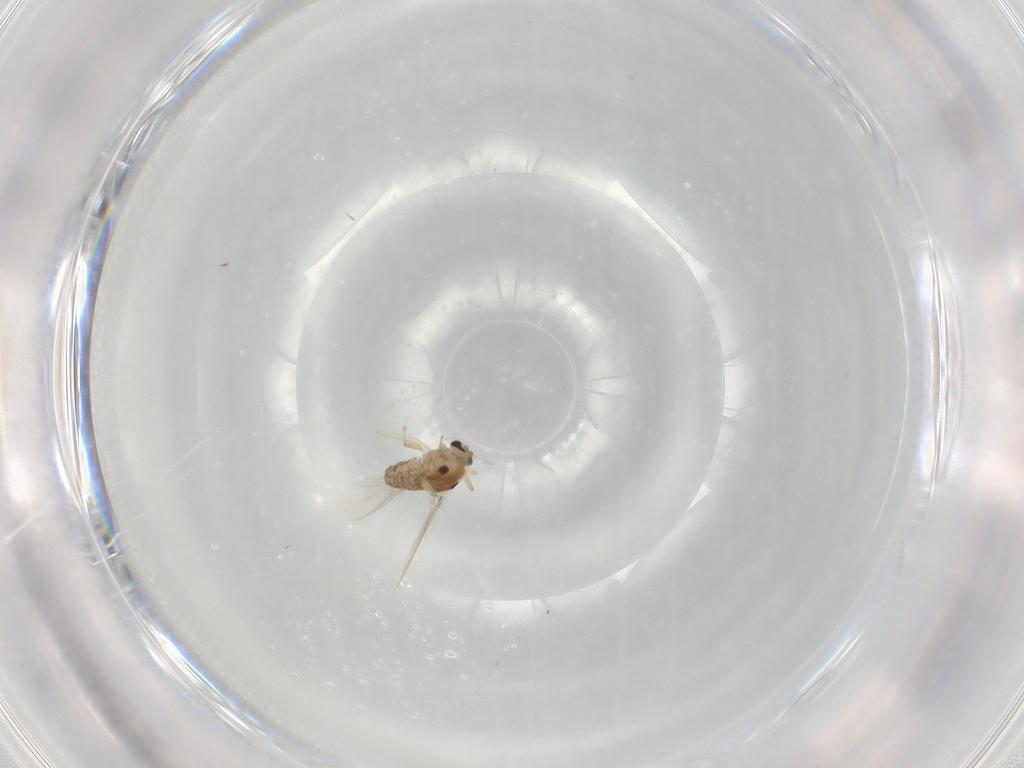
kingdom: Animalia
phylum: Arthropoda
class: Insecta
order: Diptera
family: Chironomidae
